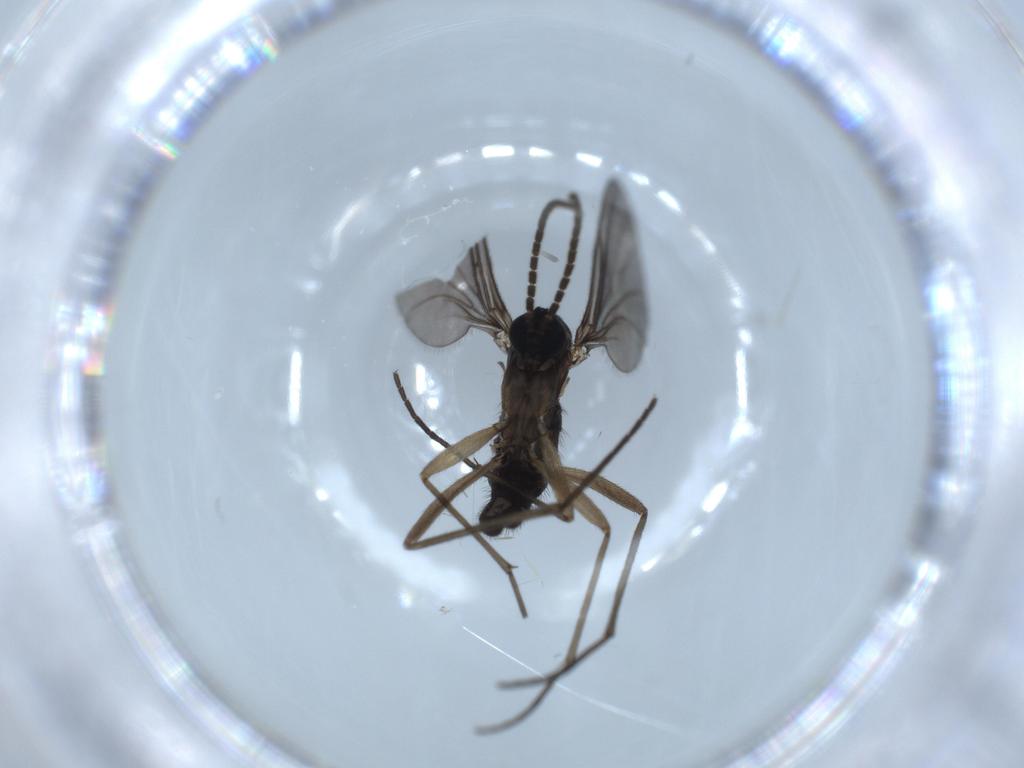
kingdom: Animalia
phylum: Arthropoda
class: Insecta
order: Diptera
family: Sciaridae
